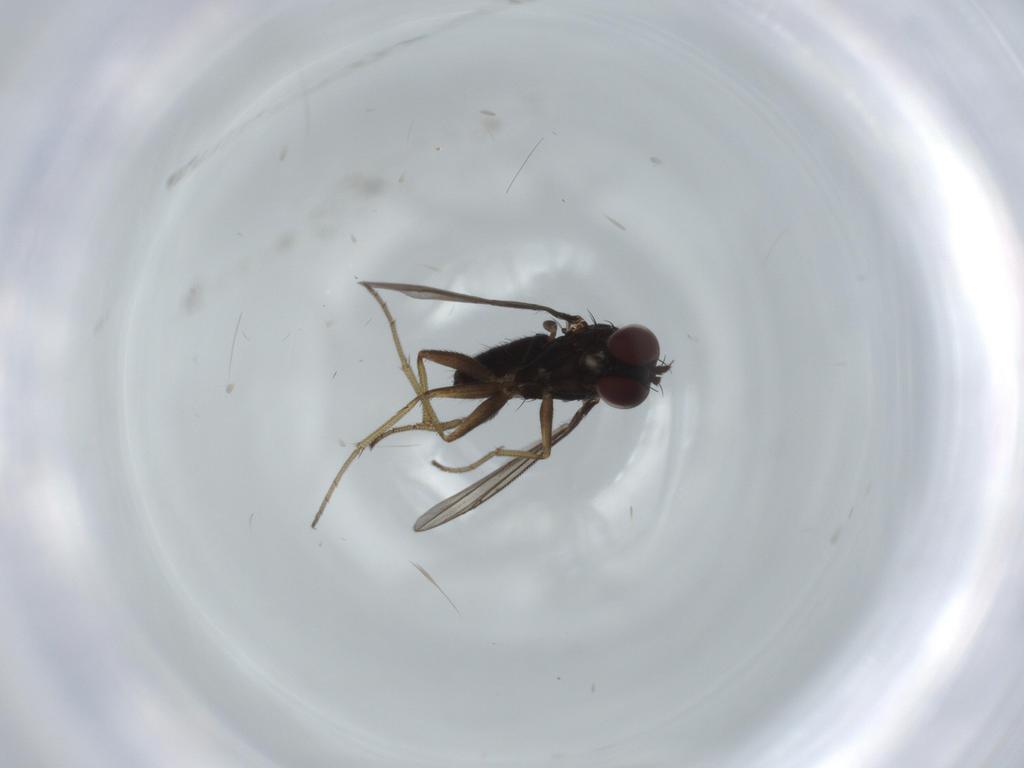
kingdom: Animalia
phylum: Arthropoda
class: Insecta
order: Diptera
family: Dolichopodidae
